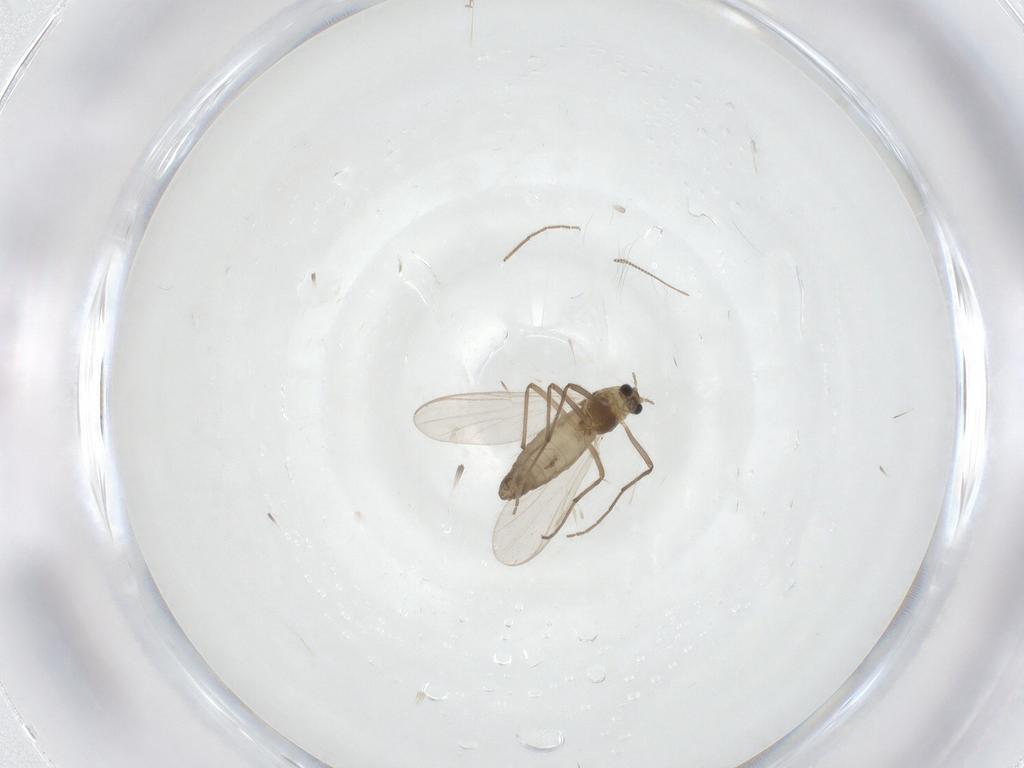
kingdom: Animalia
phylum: Arthropoda
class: Insecta
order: Diptera
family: Chironomidae
